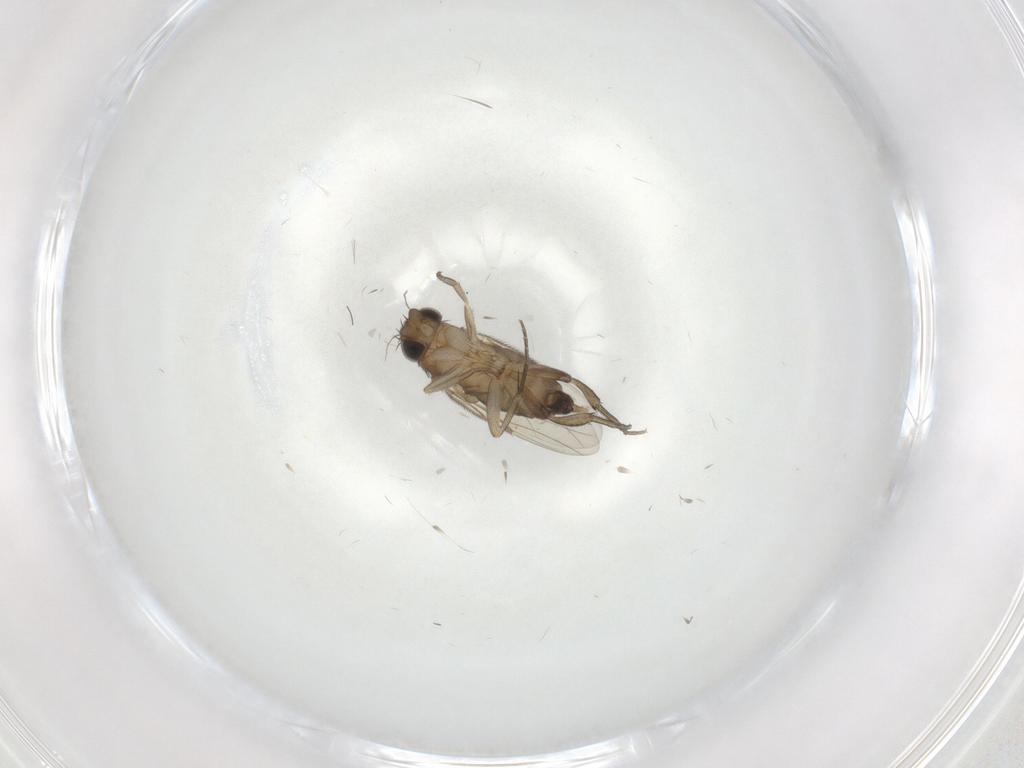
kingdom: Animalia
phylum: Arthropoda
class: Insecta
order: Diptera
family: Phoridae
